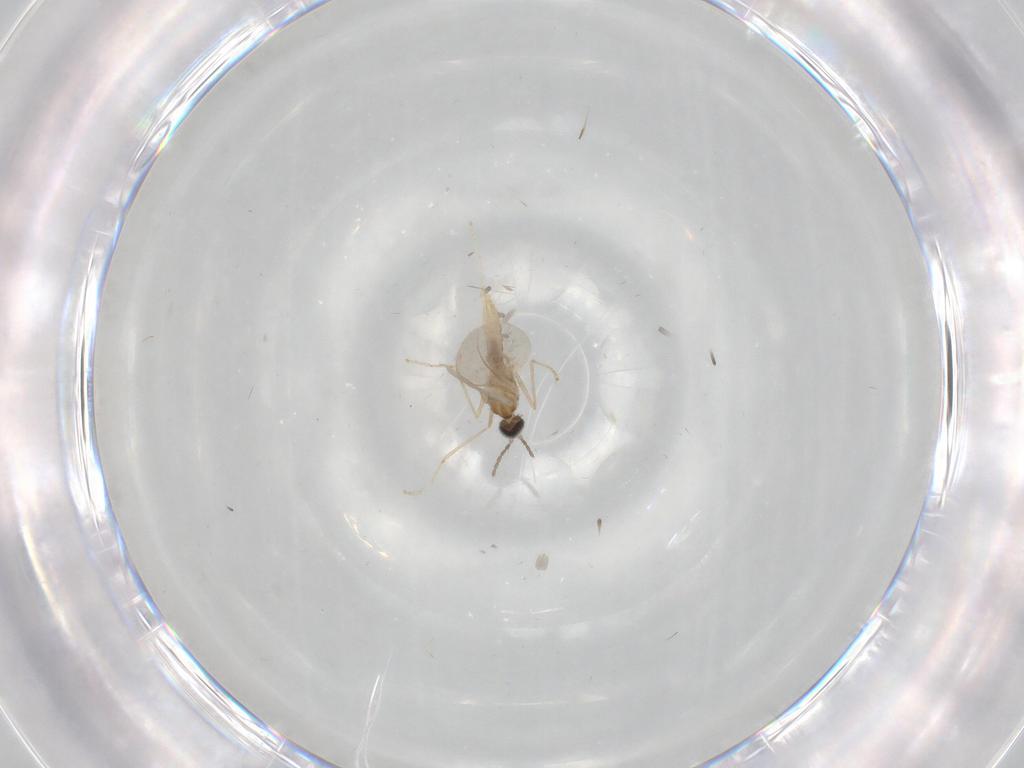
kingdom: Animalia
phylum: Arthropoda
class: Insecta
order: Diptera
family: Cecidomyiidae
